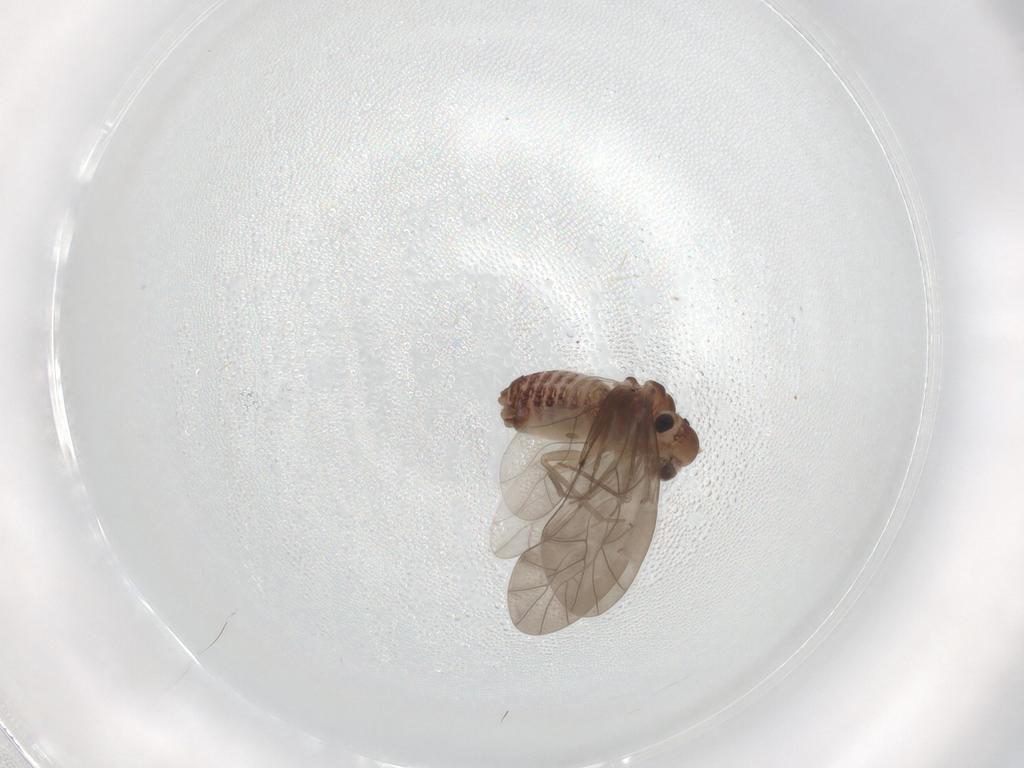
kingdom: Animalia
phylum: Arthropoda
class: Insecta
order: Psocodea
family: Peripsocidae
